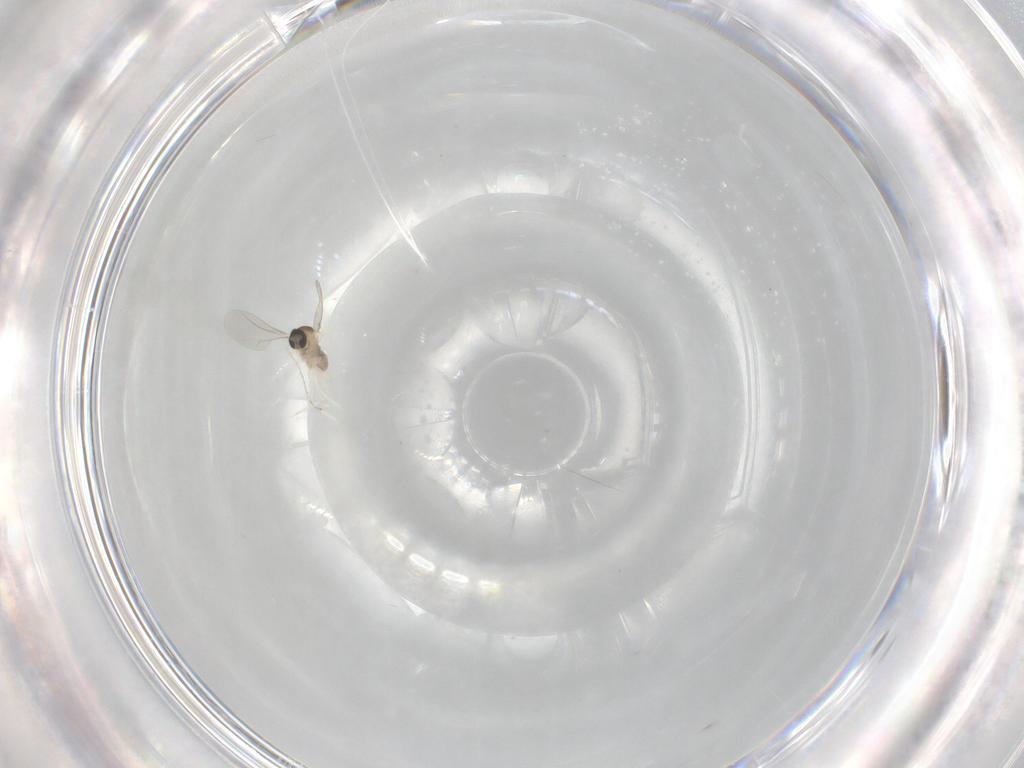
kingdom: Animalia
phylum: Arthropoda
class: Insecta
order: Diptera
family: Cecidomyiidae
